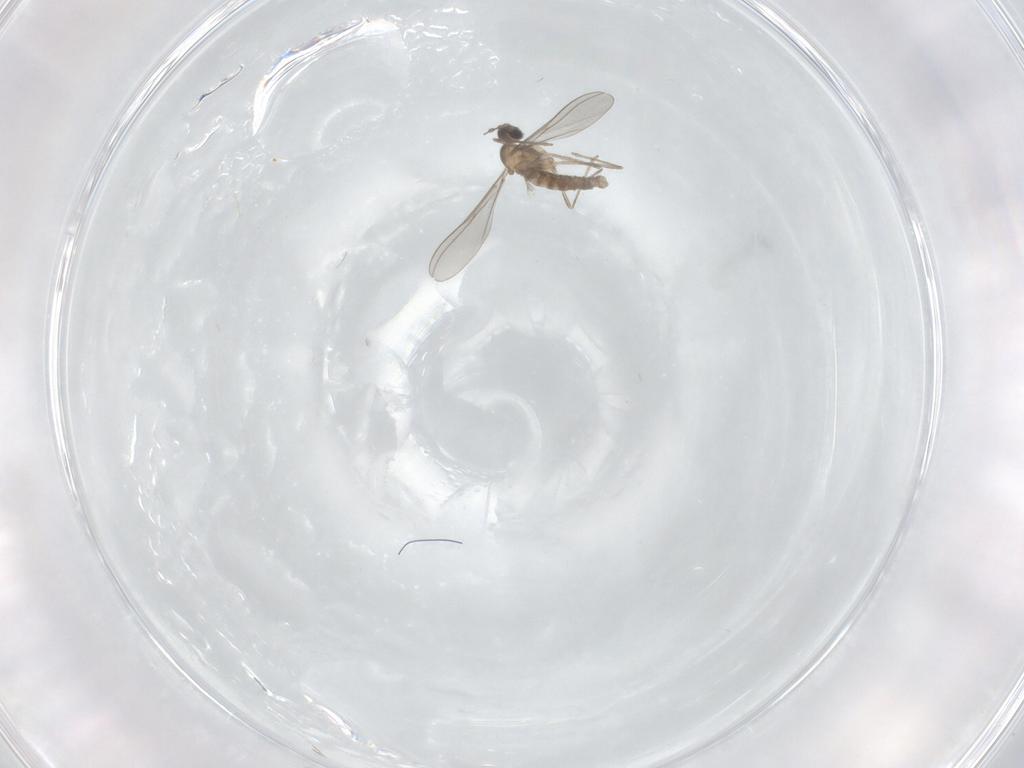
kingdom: Animalia
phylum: Arthropoda
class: Insecta
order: Diptera
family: Cecidomyiidae
